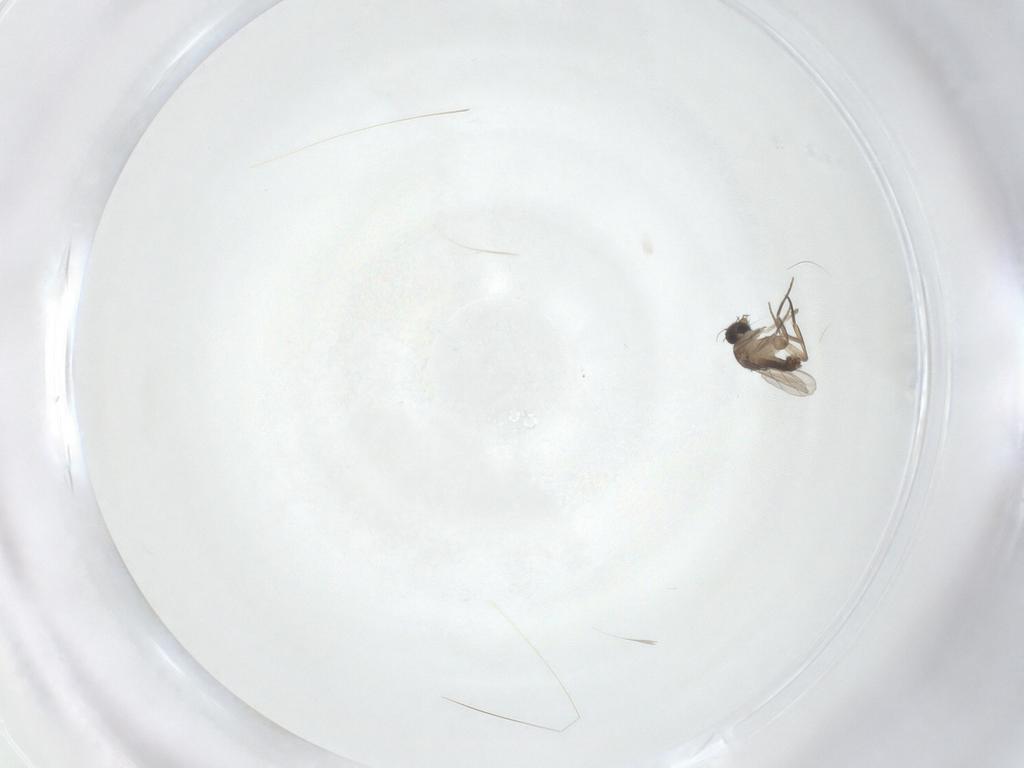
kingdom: Animalia
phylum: Arthropoda
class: Insecta
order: Diptera
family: Phoridae
